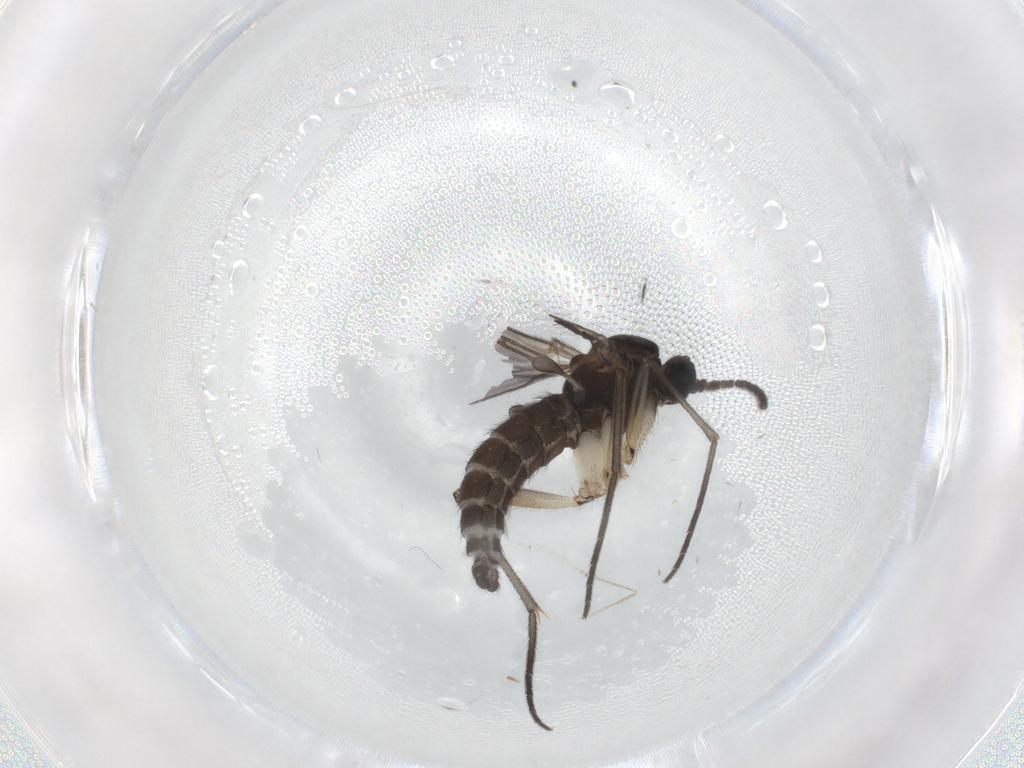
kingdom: Animalia
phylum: Arthropoda
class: Insecta
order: Diptera
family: Sciaridae
